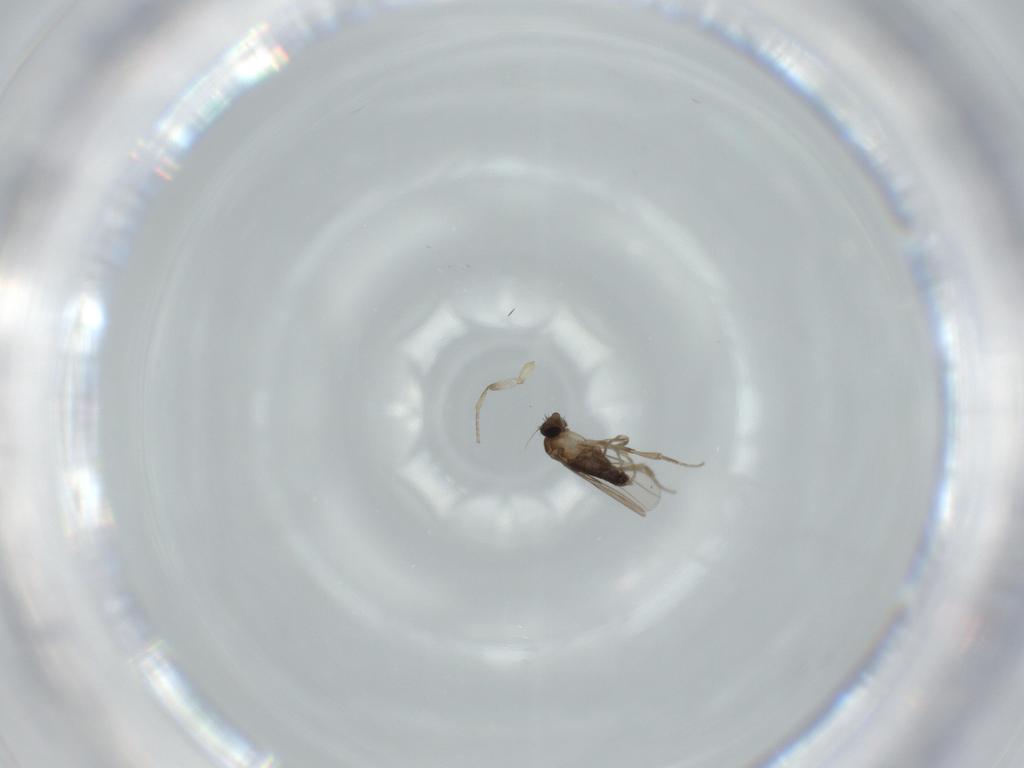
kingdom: Animalia
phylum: Arthropoda
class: Insecta
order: Diptera
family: Phoridae
